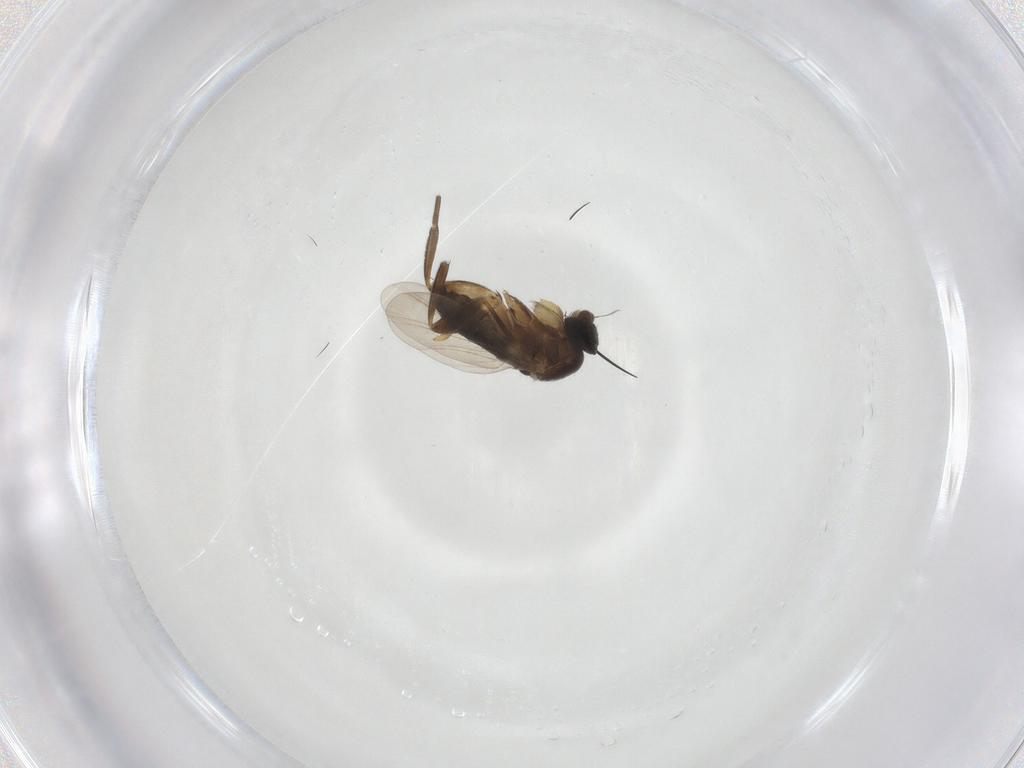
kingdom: Animalia
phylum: Arthropoda
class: Insecta
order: Diptera
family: Phoridae
